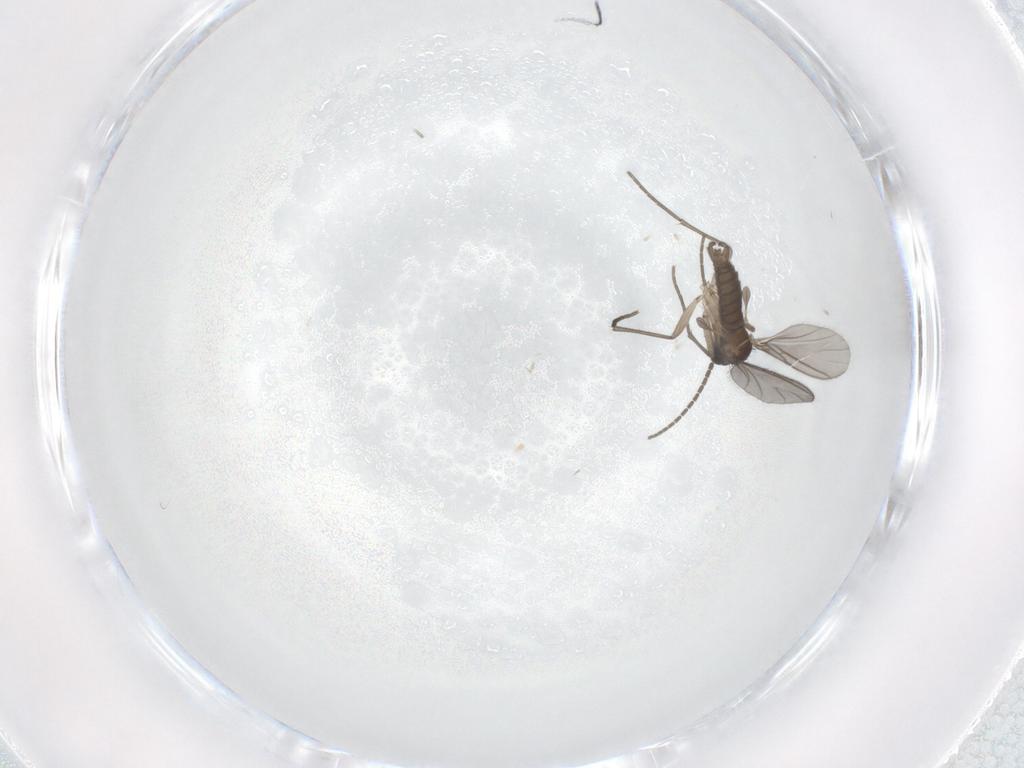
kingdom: Animalia
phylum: Arthropoda
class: Insecta
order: Diptera
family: Sciaridae
